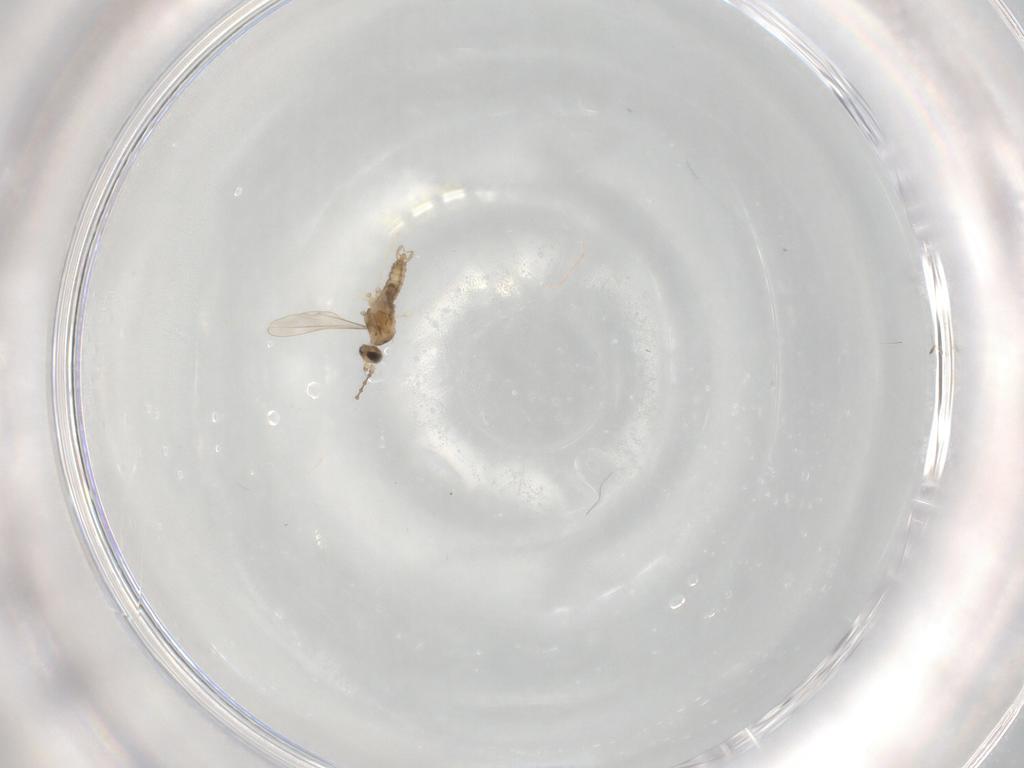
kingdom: Animalia
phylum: Arthropoda
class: Insecta
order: Diptera
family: Cecidomyiidae
